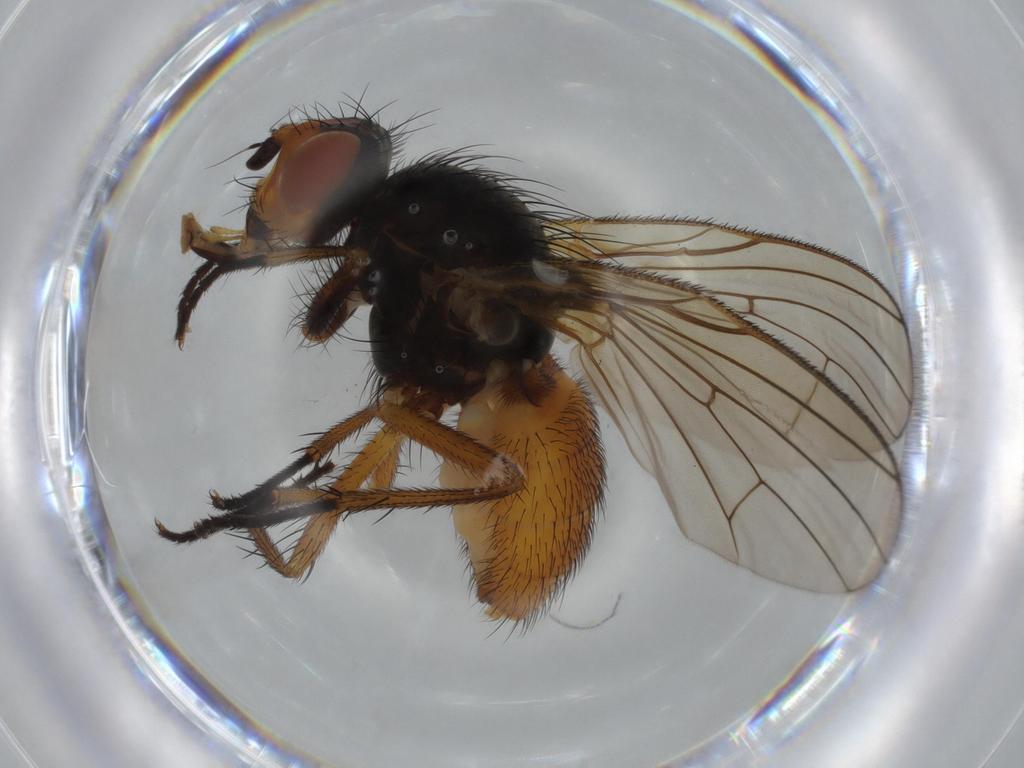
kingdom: Animalia
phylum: Arthropoda
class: Insecta
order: Diptera
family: Anthomyiidae
